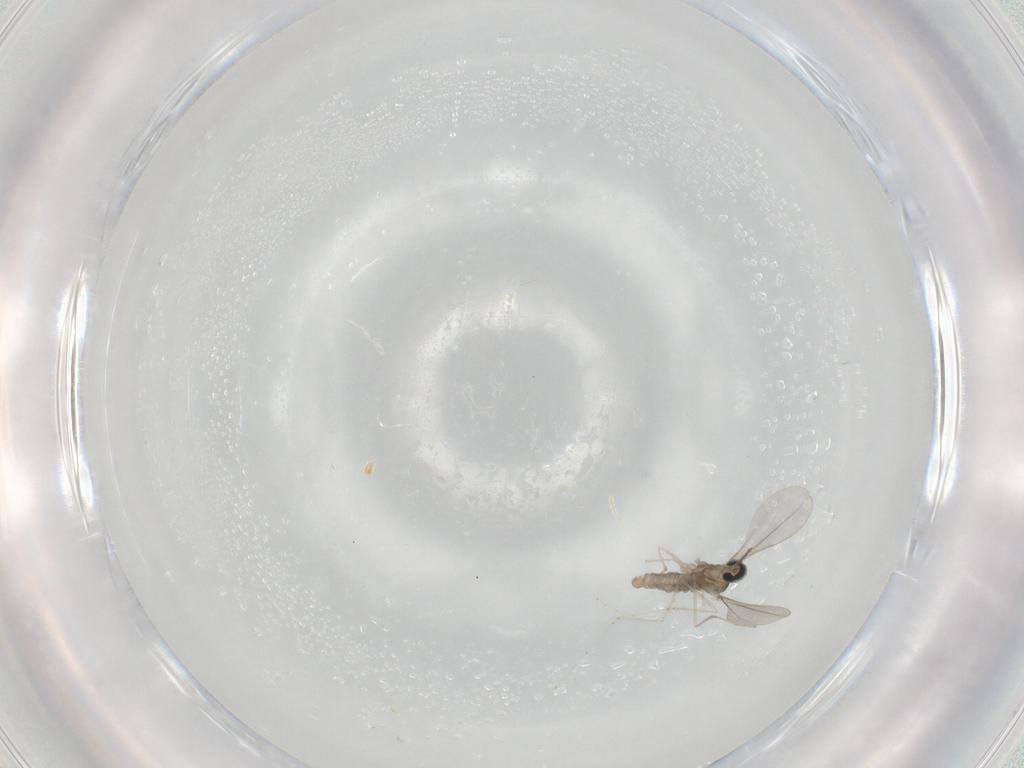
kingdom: Animalia
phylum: Arthropoda
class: Insecta
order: Diptera
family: Cecidomyiidae
